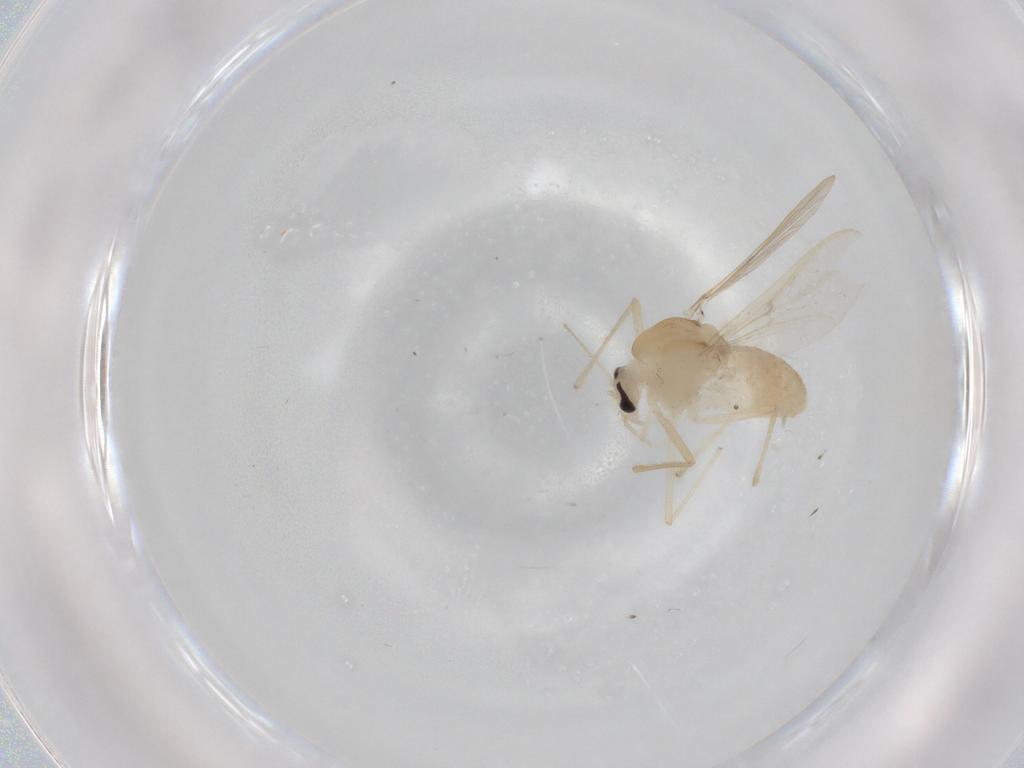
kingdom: Animalia
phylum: Arthropoda
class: Insecta
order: Diptera
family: Chironomidae
